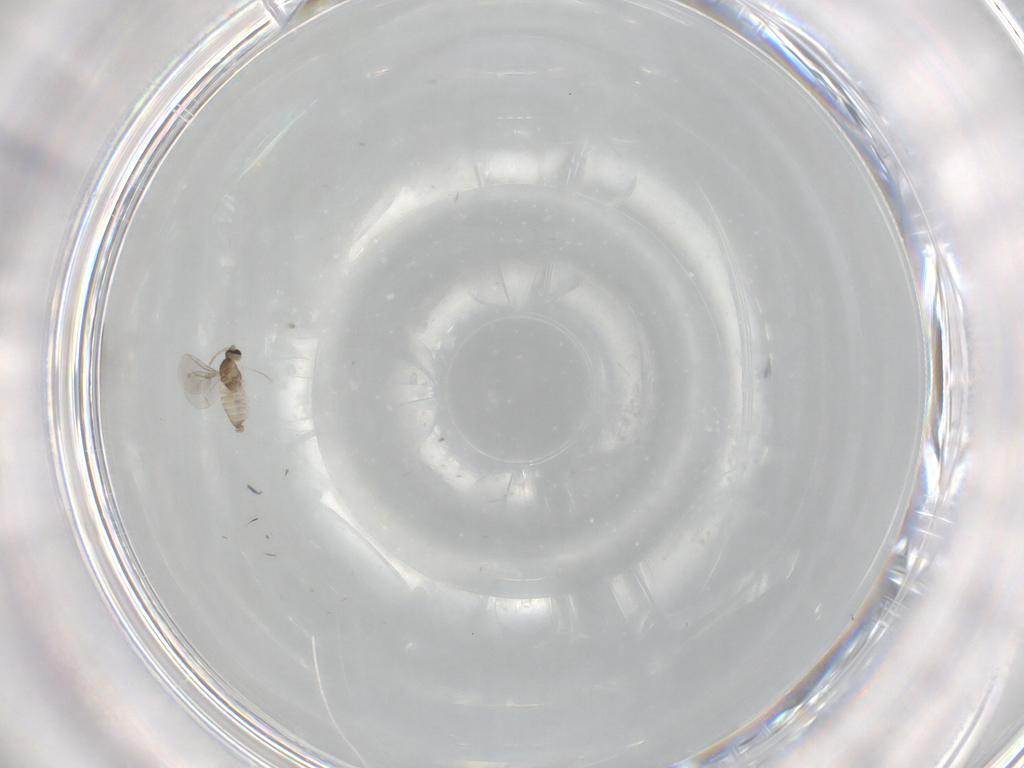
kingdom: Animalia
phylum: Arthropoda
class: Insecta
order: Diptera
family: Cecidomyiidae
